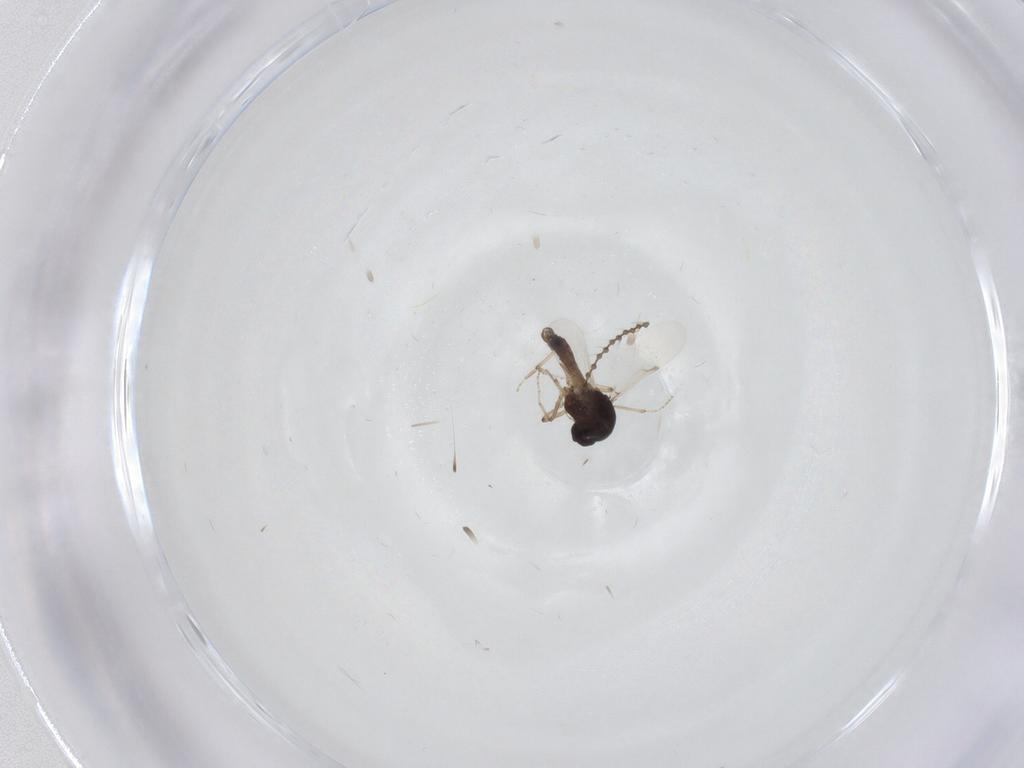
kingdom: Animalia
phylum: Arthropoda
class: Insecta
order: Diptera
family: Ceratopogonidae
